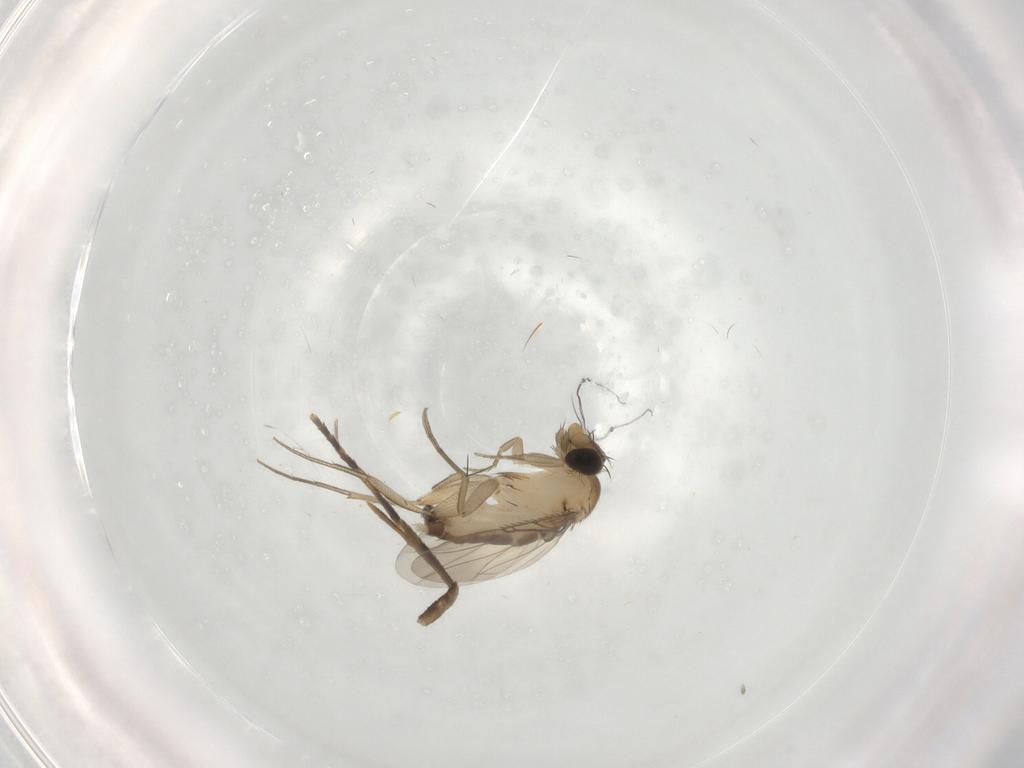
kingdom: Animalia
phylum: Arthropoda
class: Insecta
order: Diptera
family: Phoridae
